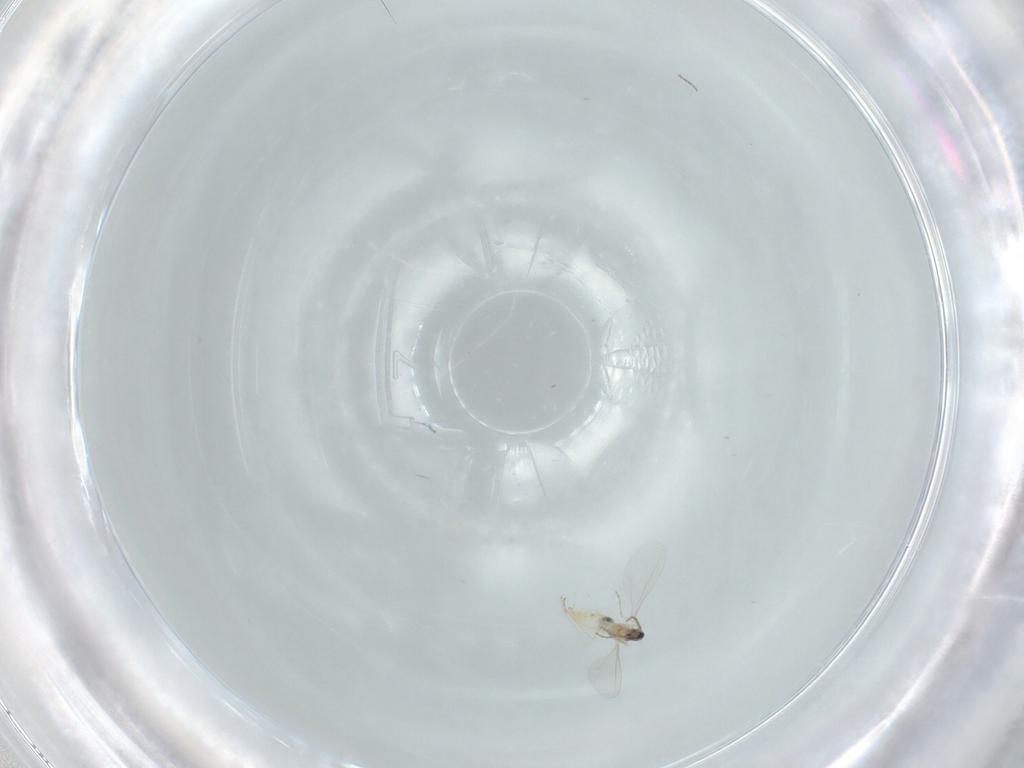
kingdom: Animalia
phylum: Arthropoda
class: Insecta
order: Diptera
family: Cecidomyiidae
